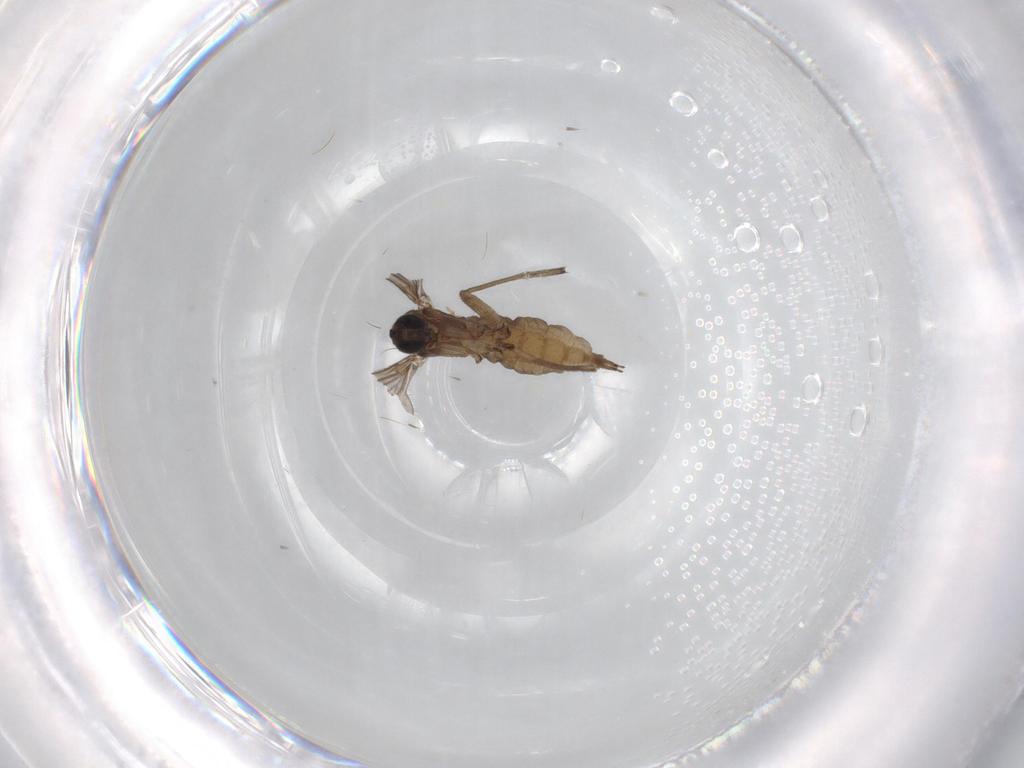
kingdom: Animalia
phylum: Arthropoda
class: Insecta
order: Diptera
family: Sciaridae
